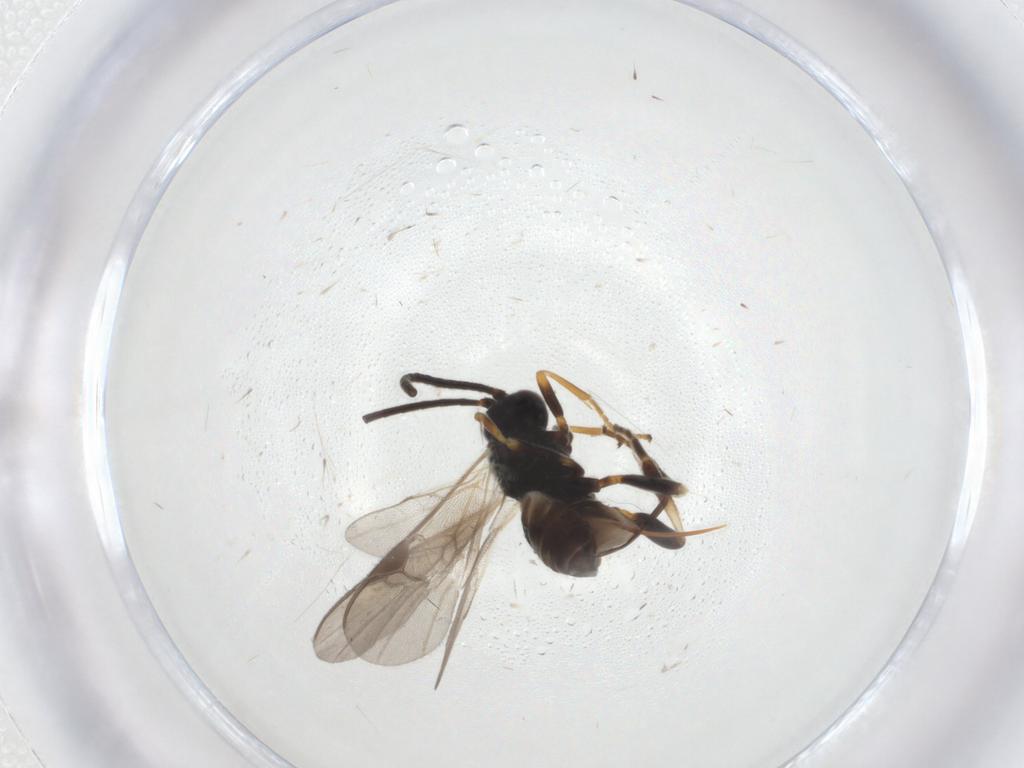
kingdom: Animalia
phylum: Arthropoda
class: Insecta
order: Hymenoptera
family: Braconidae
